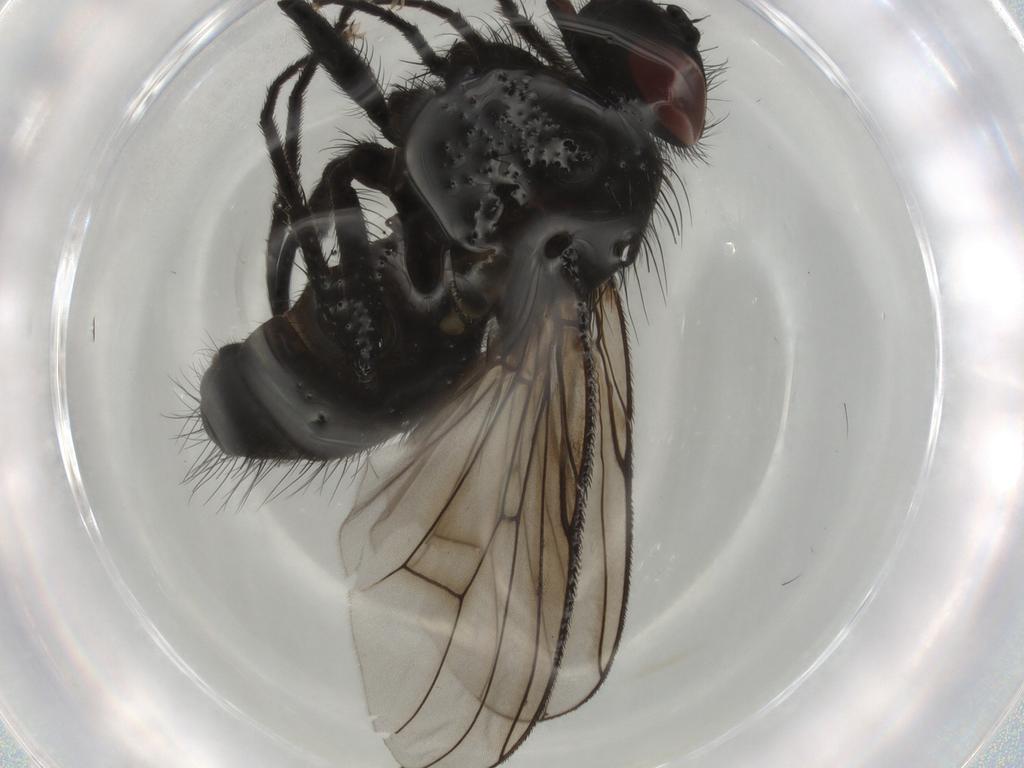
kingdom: Animalia
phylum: Arthropoda
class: Insecta
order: Diptera
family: Muscidae
